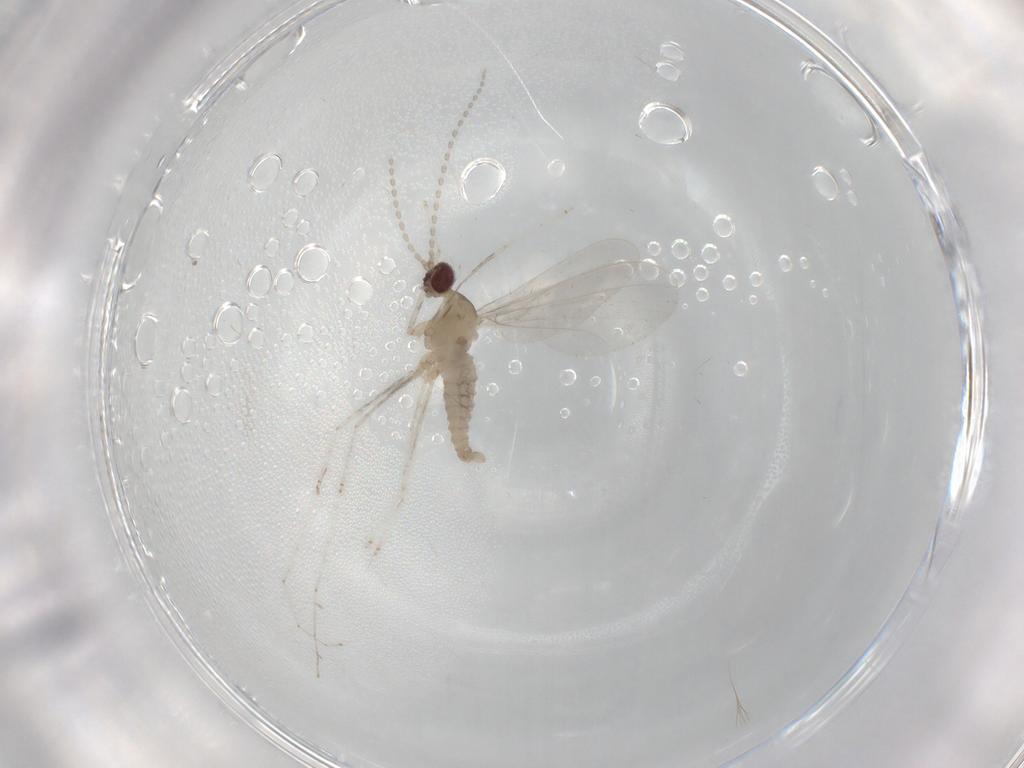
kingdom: Animalia
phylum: Arthropoda
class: Insecta
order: Diptera
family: Cecidomyiidae
